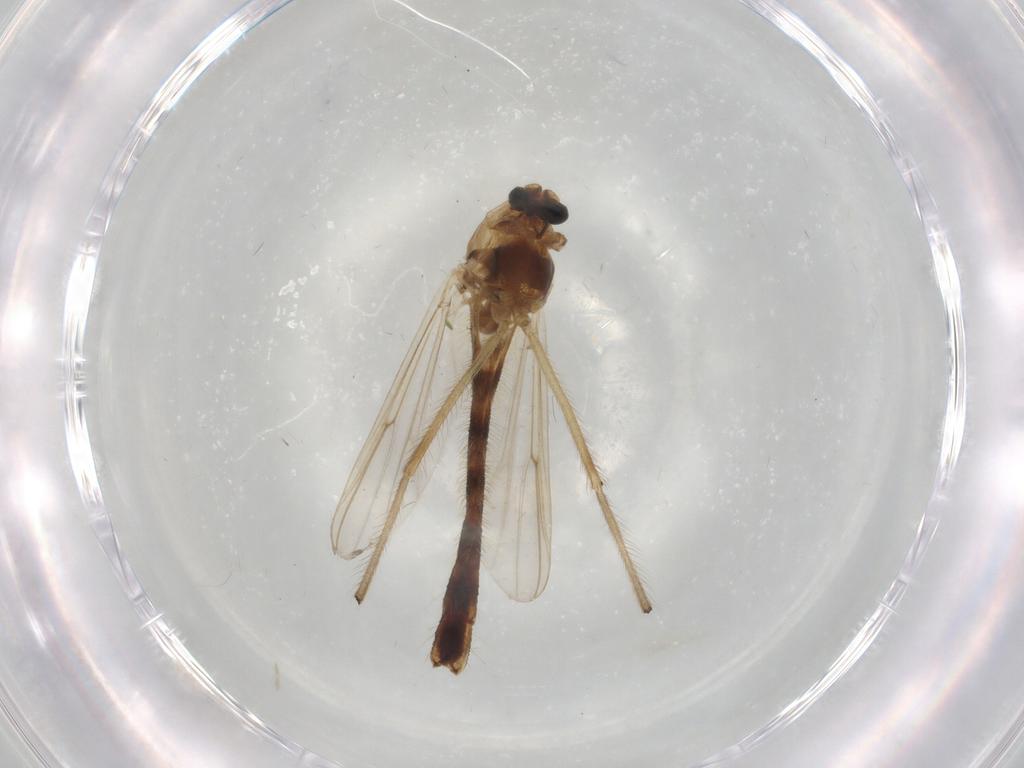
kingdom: Animalia
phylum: Arthropoda
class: Insecta
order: Diptera
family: Chironomidae
